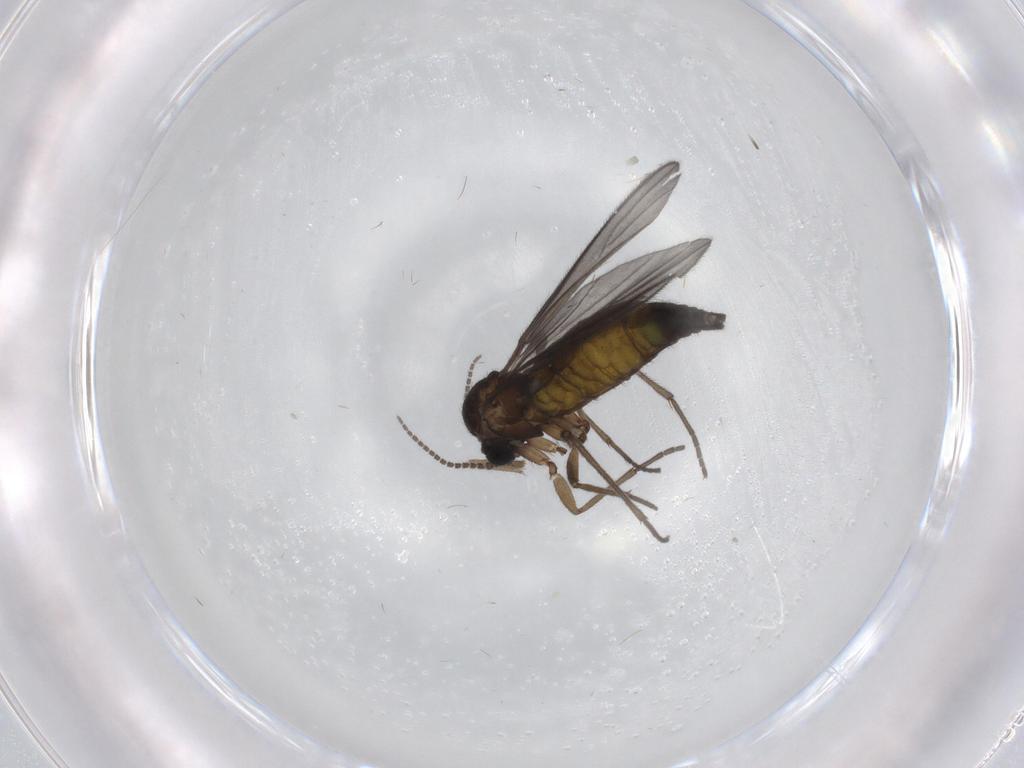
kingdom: Animalia
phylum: Arthropoda
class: Insecta
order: Diptera
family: Sciaridae
